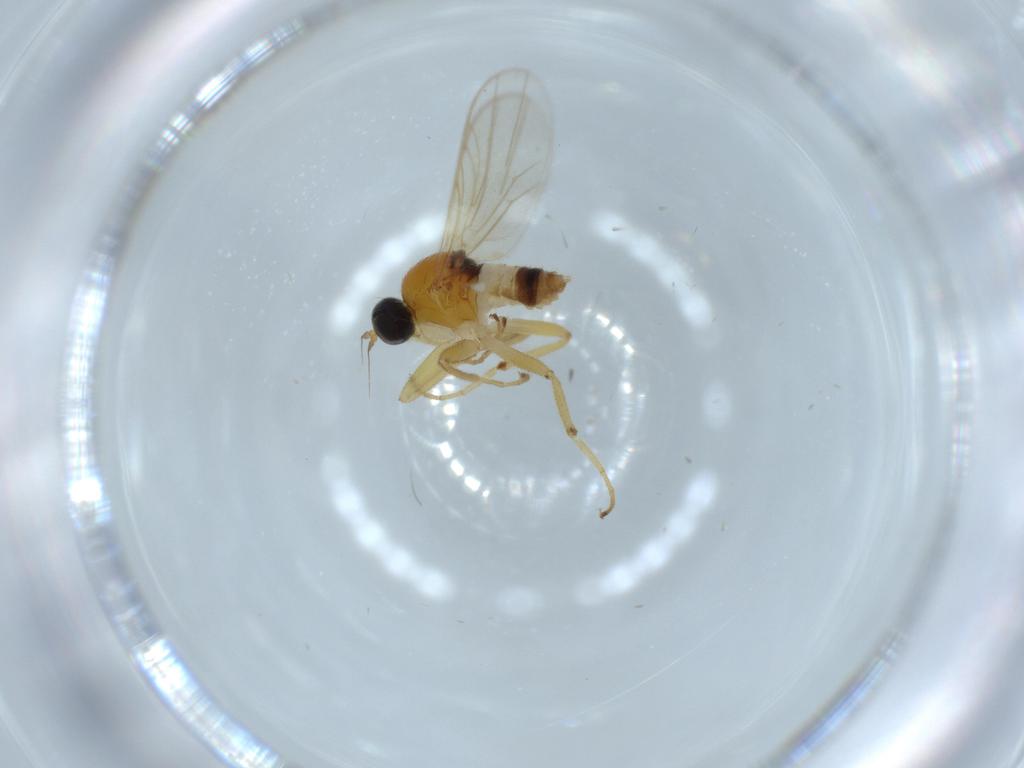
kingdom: Animalia
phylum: Arthropoda
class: Insecta
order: Diptera
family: Hybotidae
